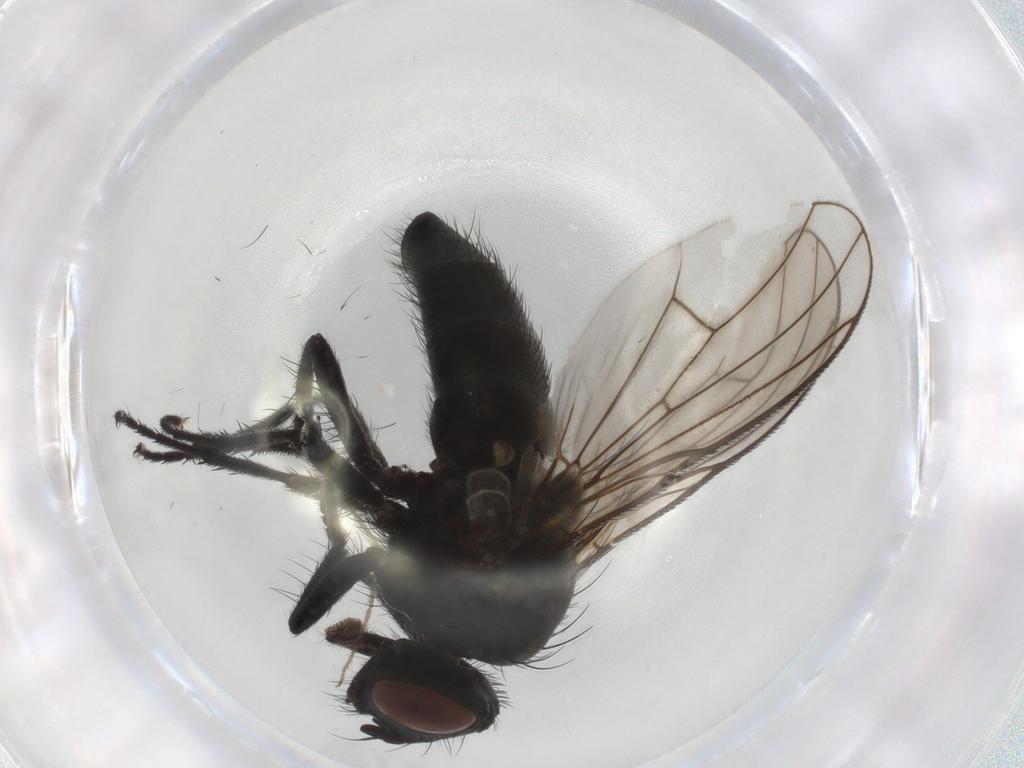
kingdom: Animalia
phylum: Arthropoda
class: Insecta
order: Diptera
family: Muscidae
